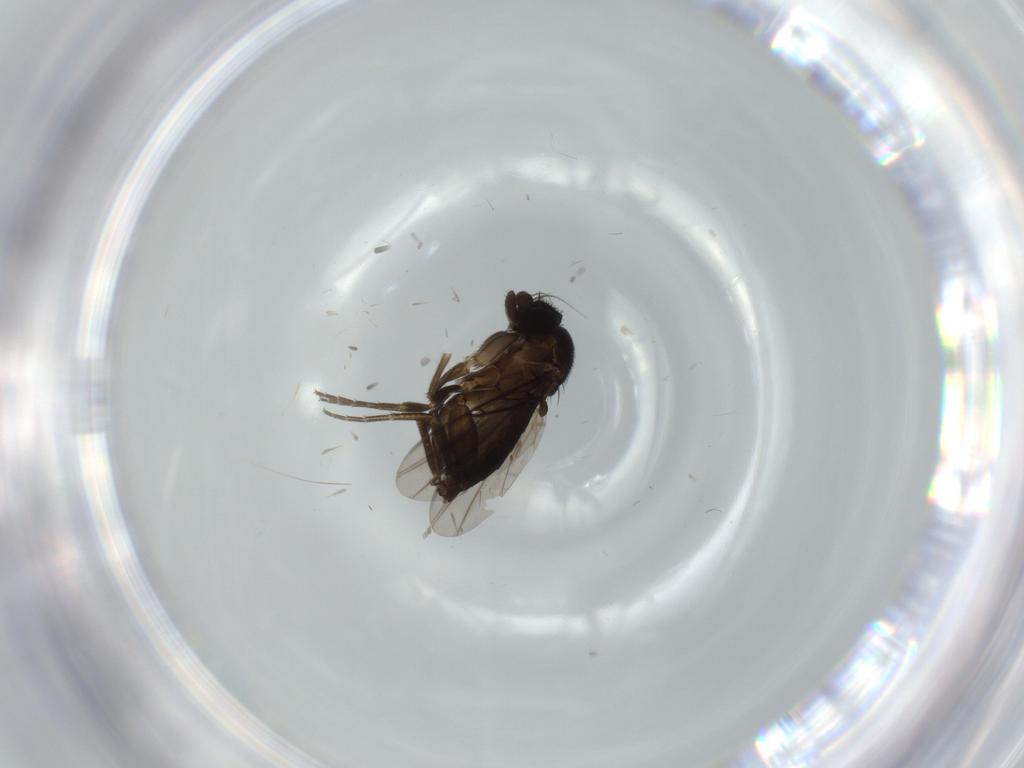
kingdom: Animalia
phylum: Arthropoda
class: Insecta
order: Diptera
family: Phoridae
